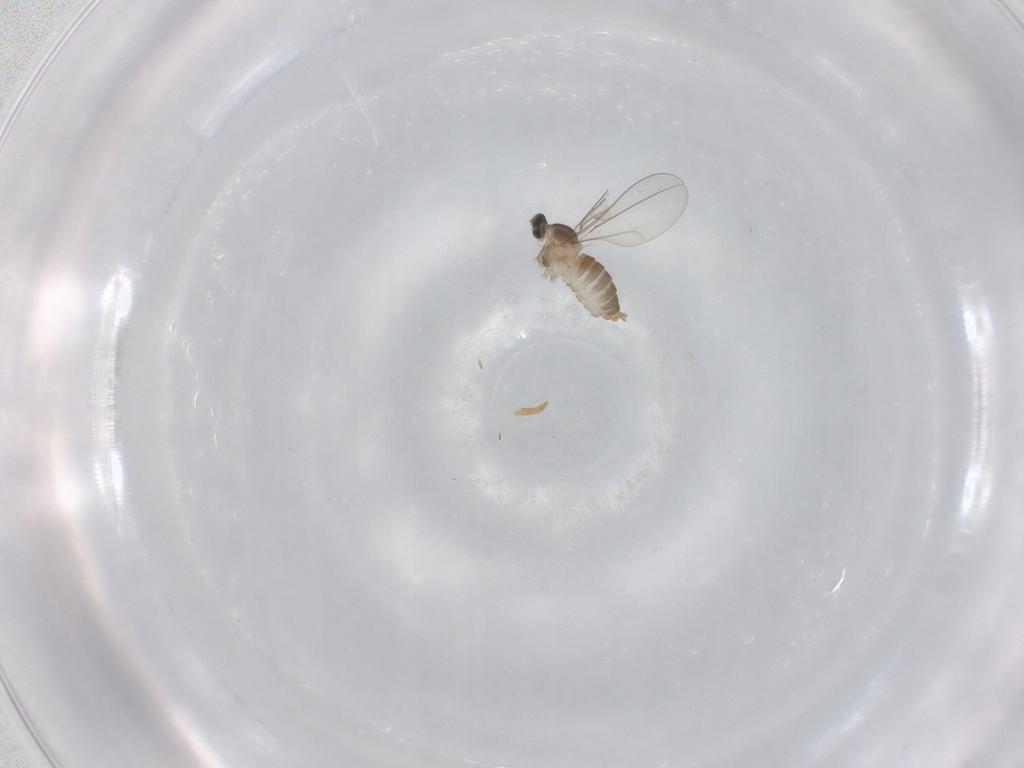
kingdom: Animalia
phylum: Arthropoda
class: Insecta
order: Diptera
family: Cecidomyiidae
